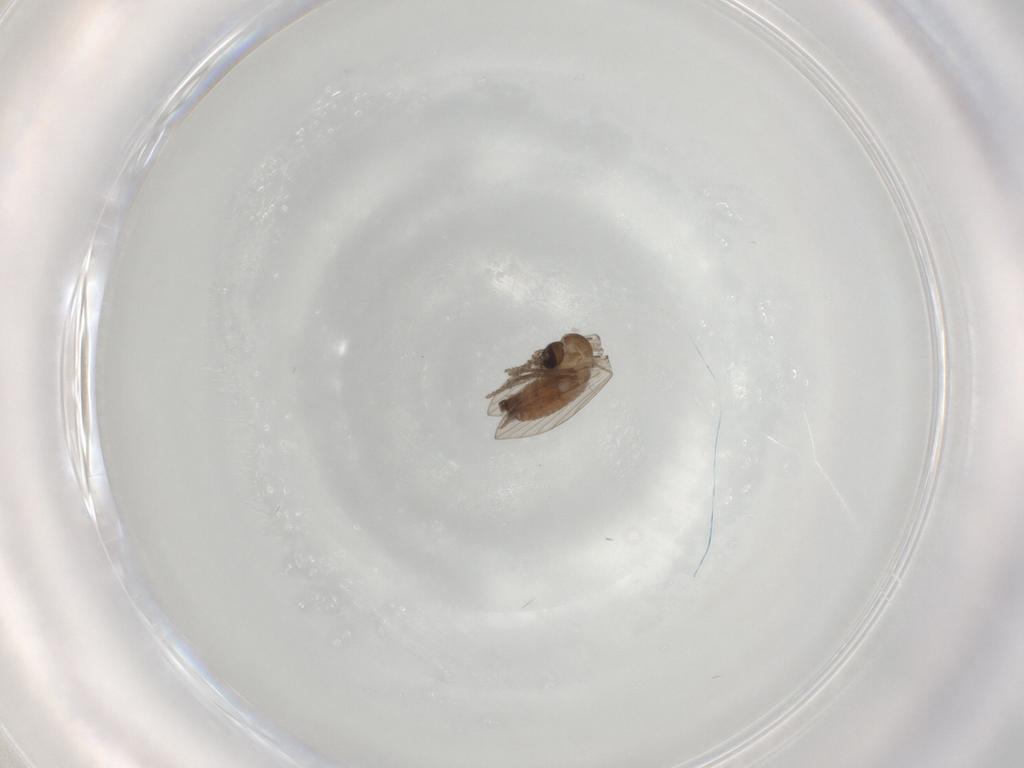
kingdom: Animalia
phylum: Arthropoda
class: Insecta
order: Diptera
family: Psychodidae
